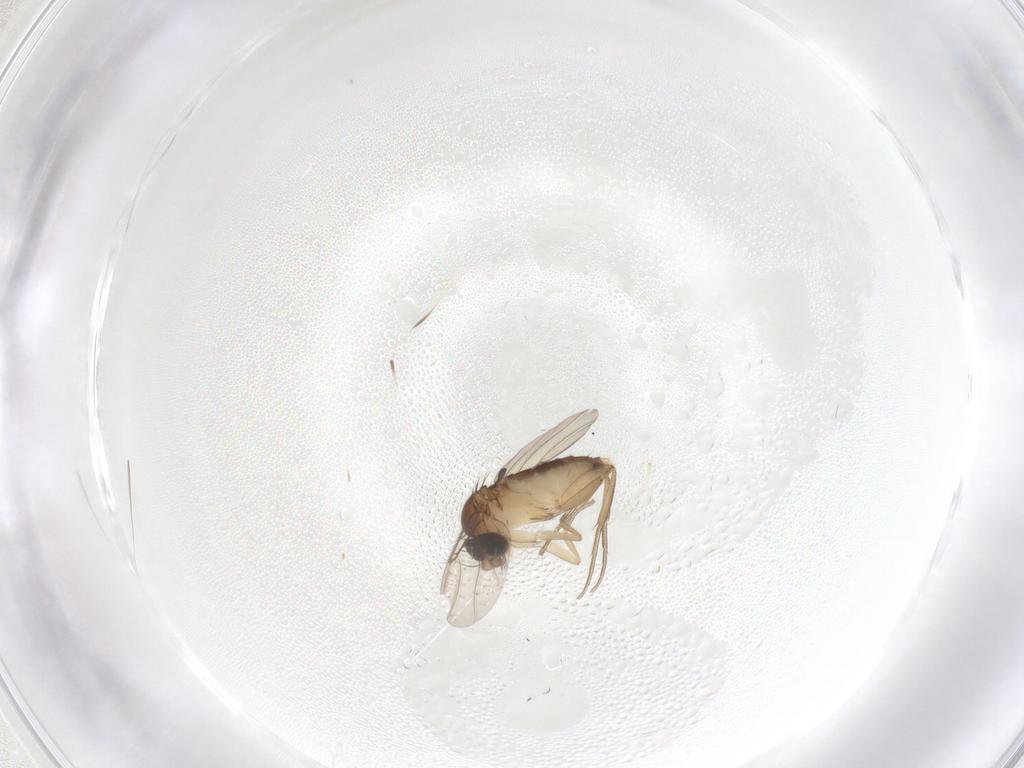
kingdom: Animalia
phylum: Arthropoda
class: Insecta
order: Diptera
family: Phoridae
